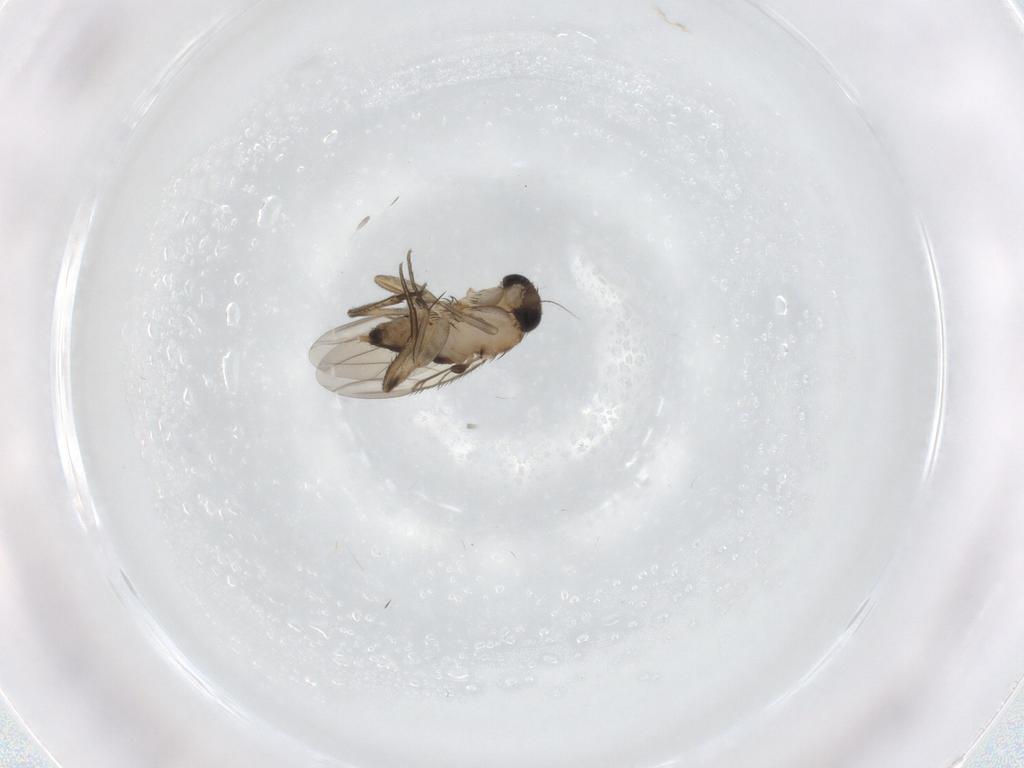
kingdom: Animalia
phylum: Arthropoda
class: Insecta
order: Diptera
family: Phoridae
